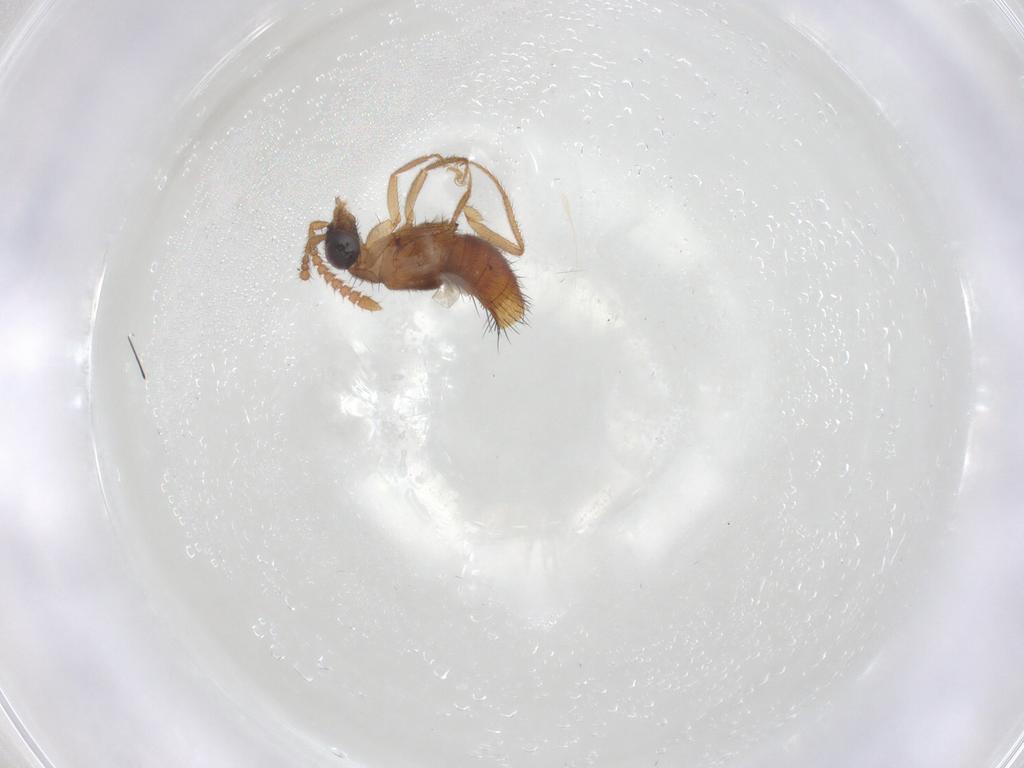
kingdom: Animalia
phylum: Arthropoda
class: Insecta
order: Coleoptera
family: Staphylinidae
